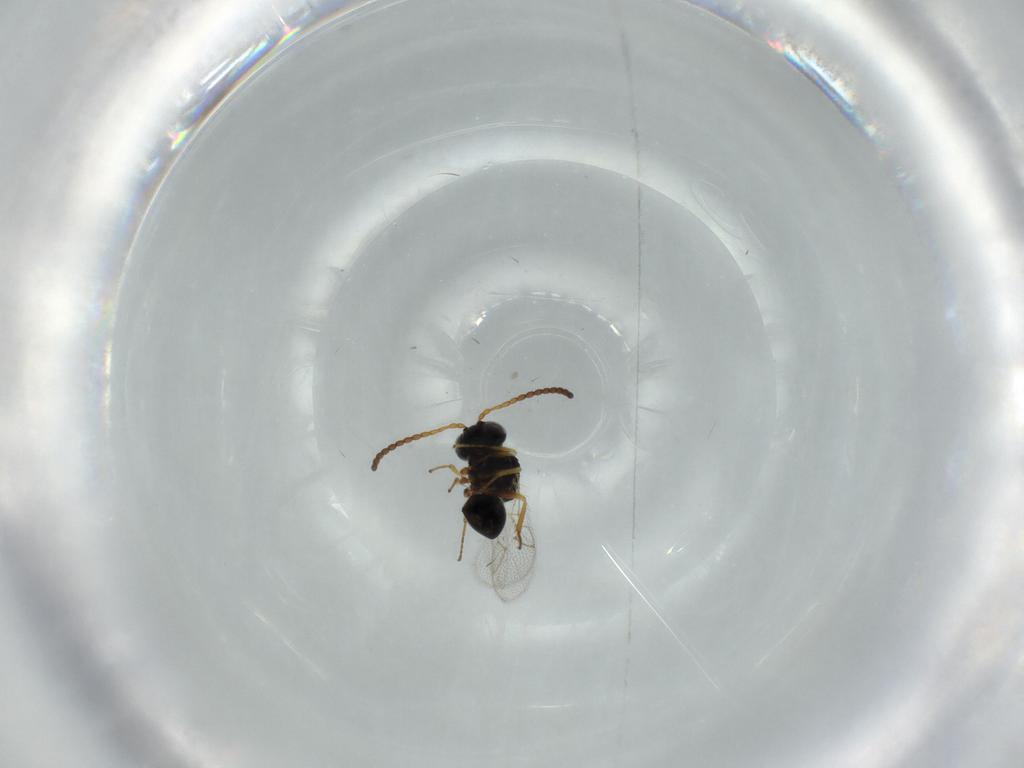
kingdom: Animalia
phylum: Arthropoda
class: Insecta
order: Hymenoptera
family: Figitidae
